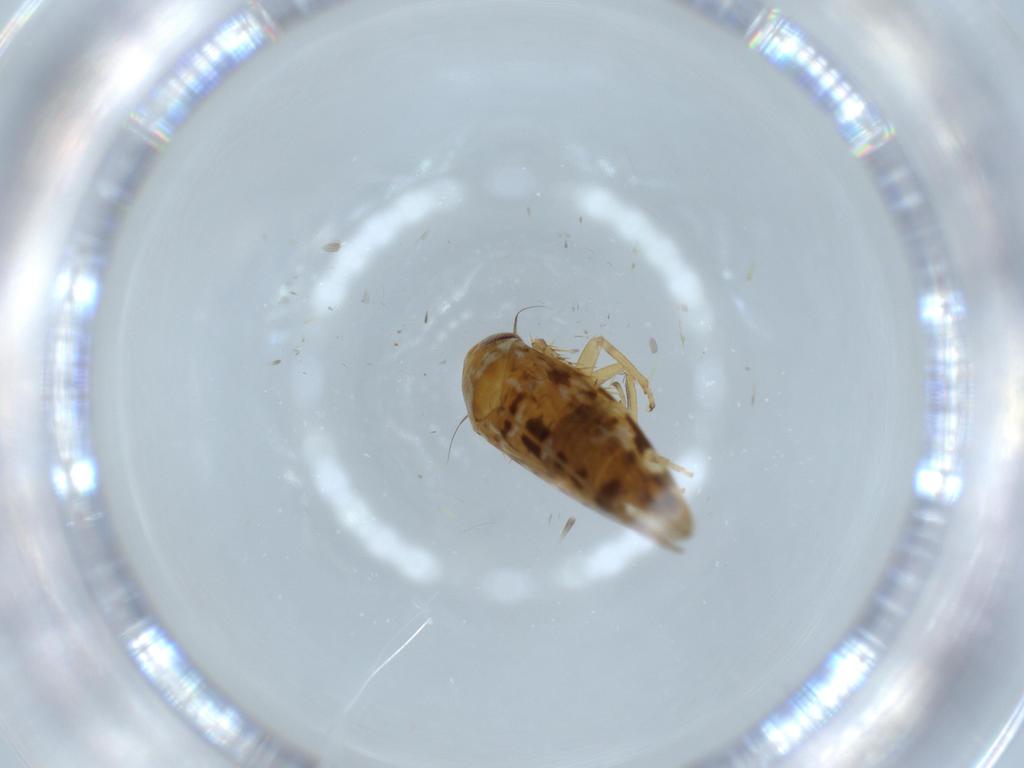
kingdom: Animalia
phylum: Arthropoda
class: Insecta
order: Hemiptera
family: Cicadellidae
